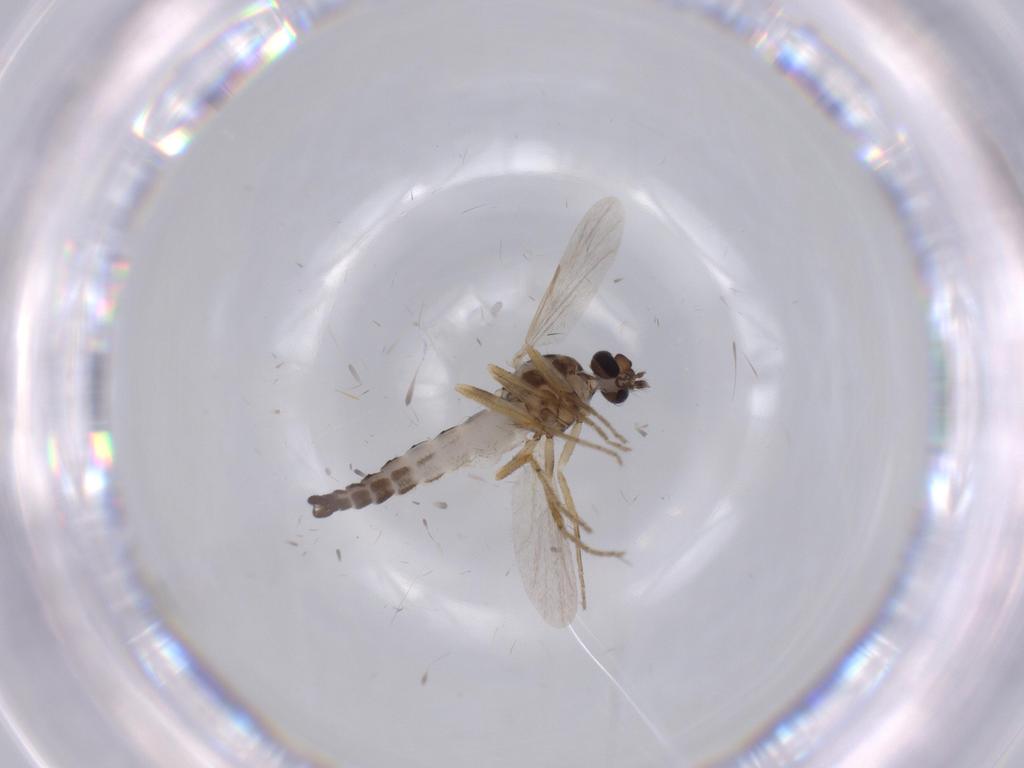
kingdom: Animalia
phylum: Arthropoda
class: Insecta
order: Diptera
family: Ceratopogonidae
